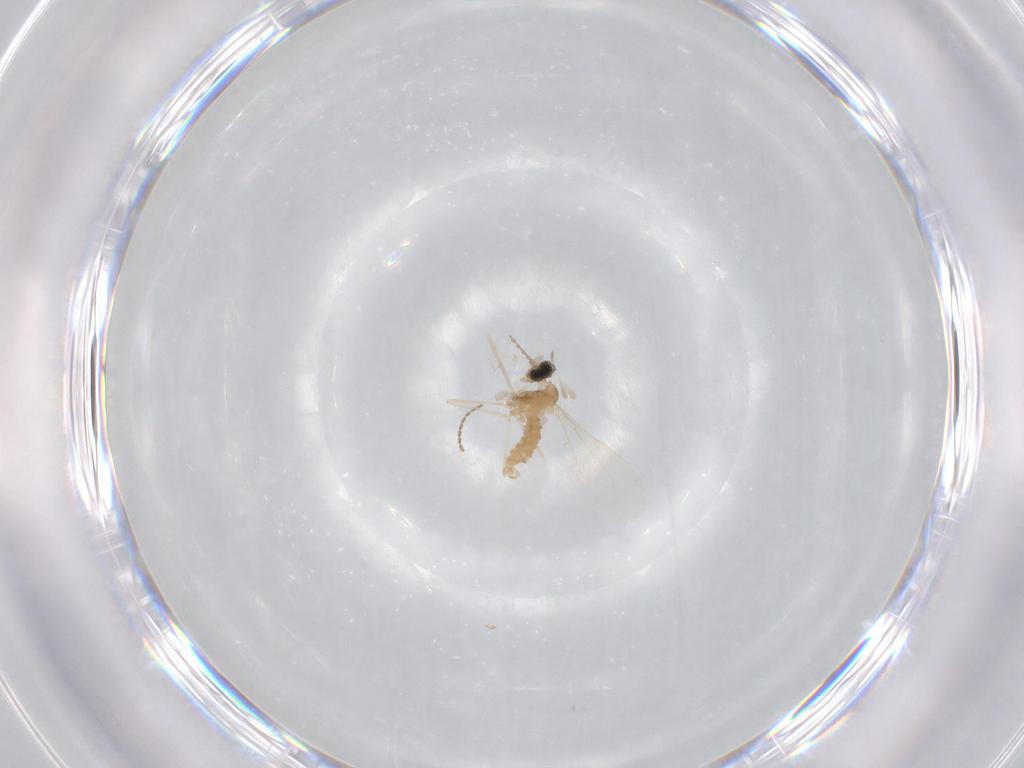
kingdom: Animalia
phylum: Arthropoda
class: Insecta
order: Diptera
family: Cecidomyiidae
